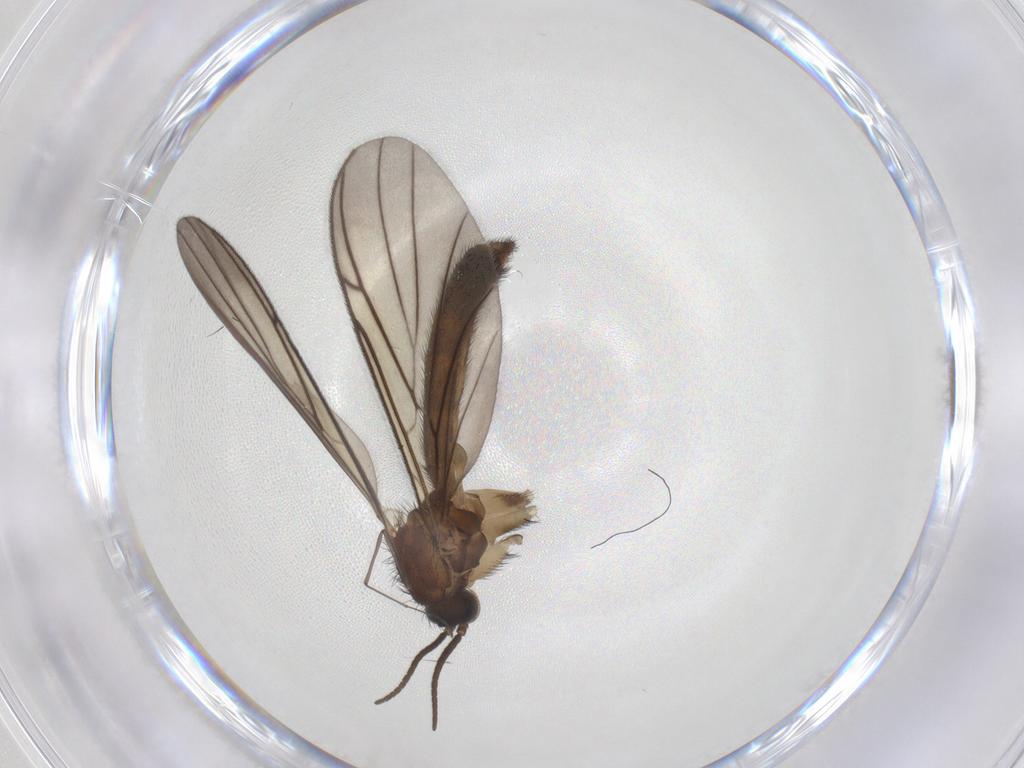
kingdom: Animalia
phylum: Arthropoda
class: Insecta
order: Diptera
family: Keroplatidae
